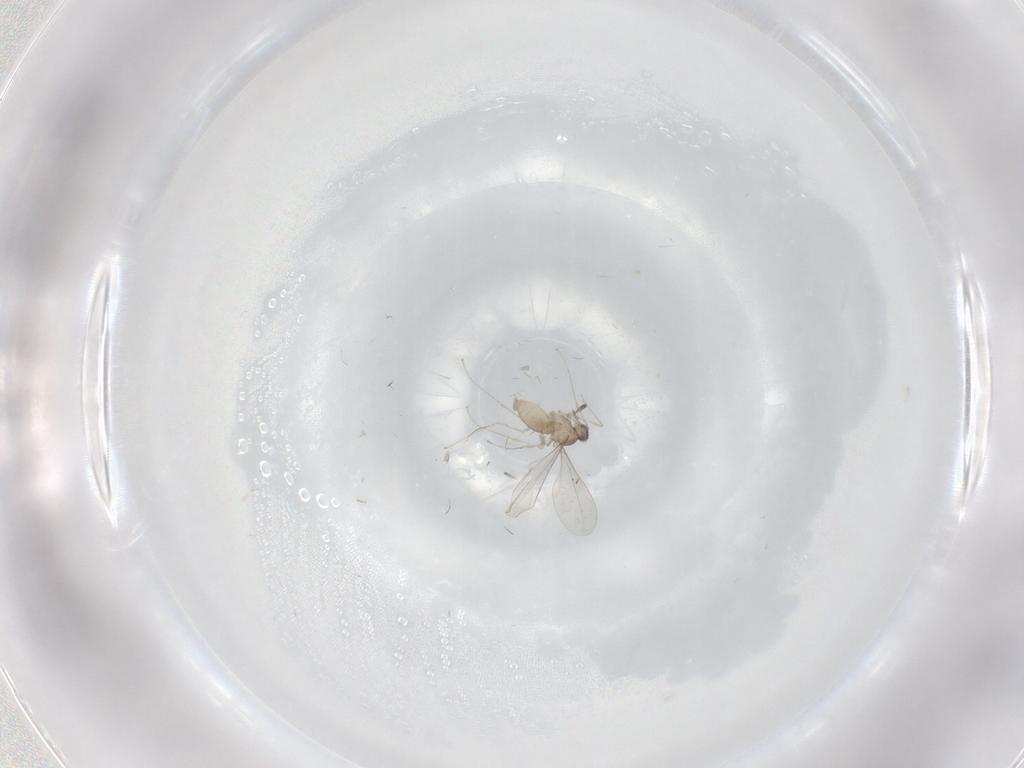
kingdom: Animalia
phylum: Arthropoda
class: Insecta
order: Diptera
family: Cecidomyiidae
